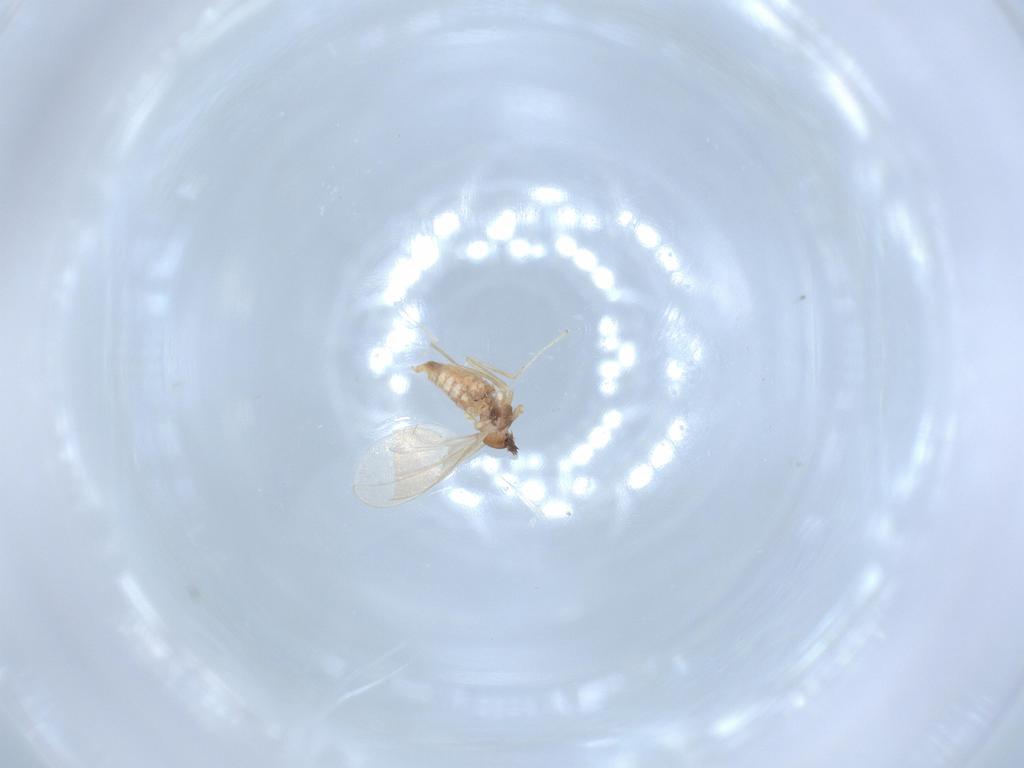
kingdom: Animalia
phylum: Arthropoda
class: Insecta
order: Diptera
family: Cecidomyiidae
